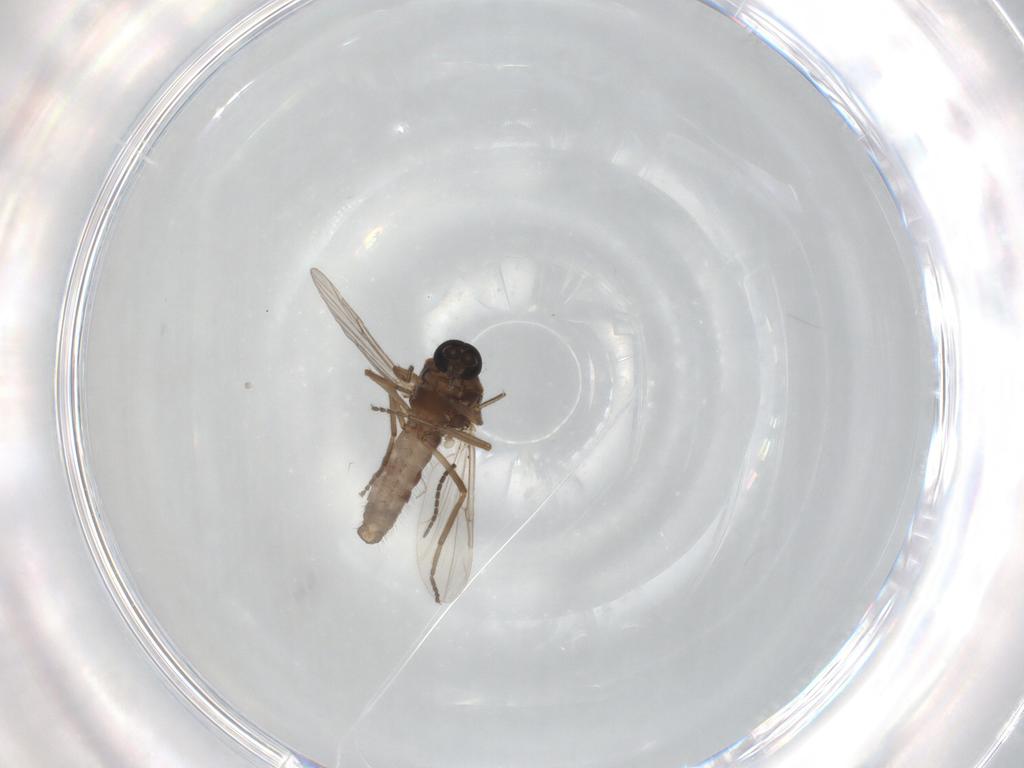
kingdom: Animalia
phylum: Arthropoda
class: Insecta
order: Diptera
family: Ceratopogonidae
